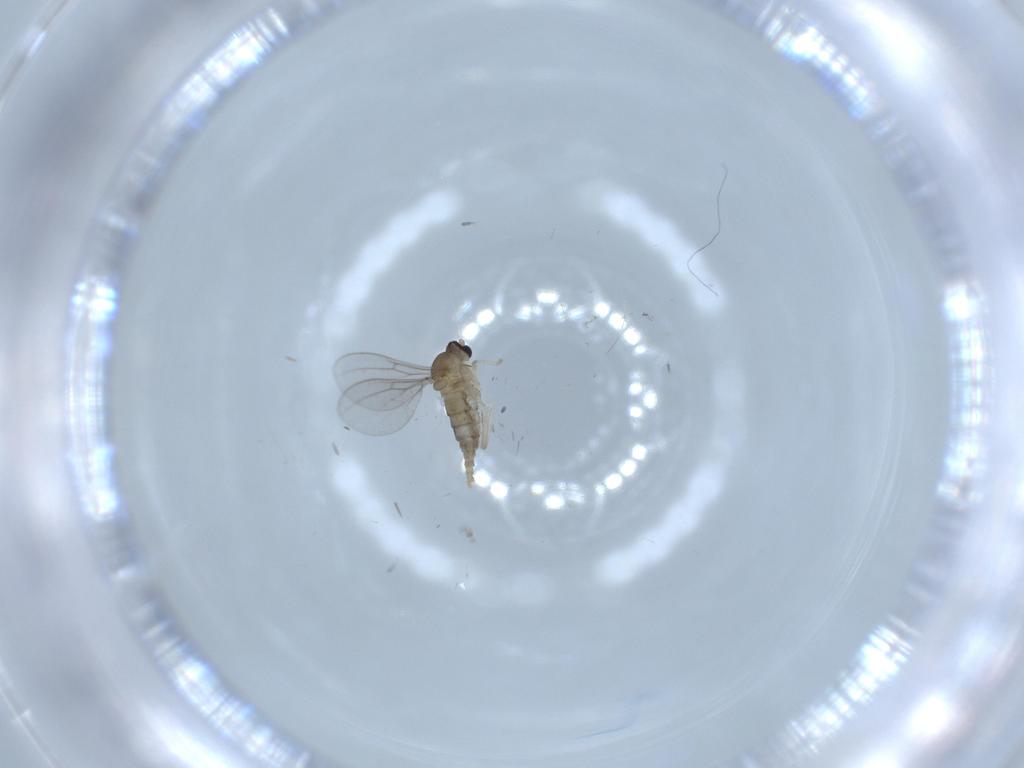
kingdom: Animalia
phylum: Arthropoda
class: Insecta
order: Diptera
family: Cecidomyiidae
